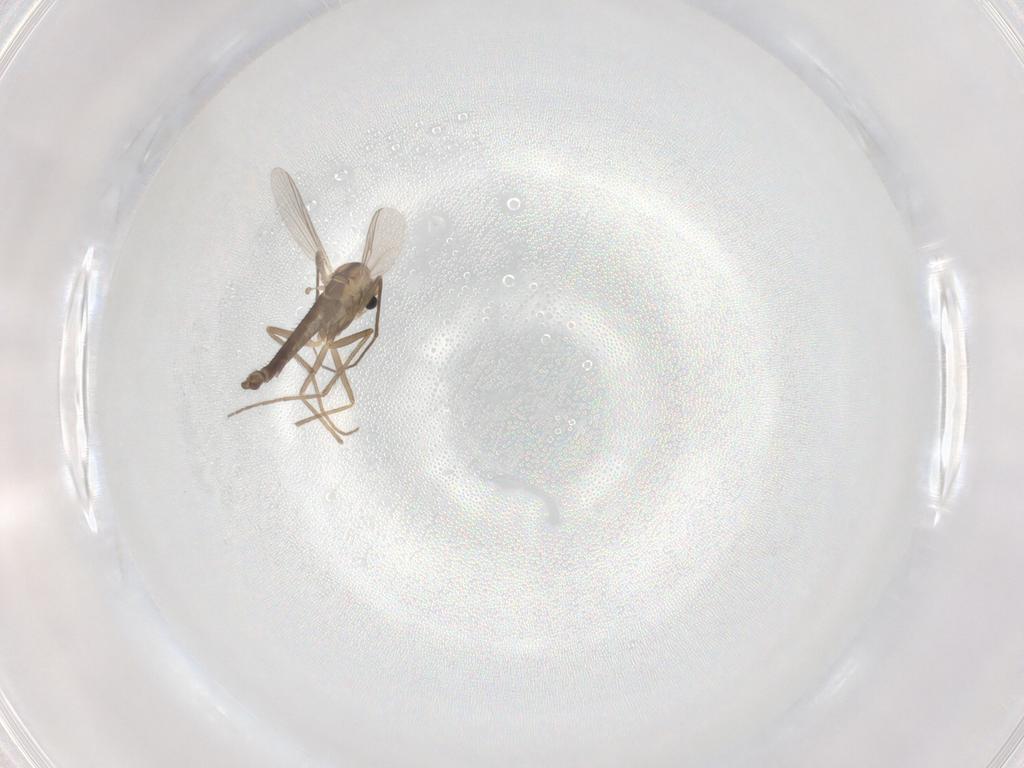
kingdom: Animalia
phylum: Arthropoda
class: Insecta
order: Diptera
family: Chironomidae
